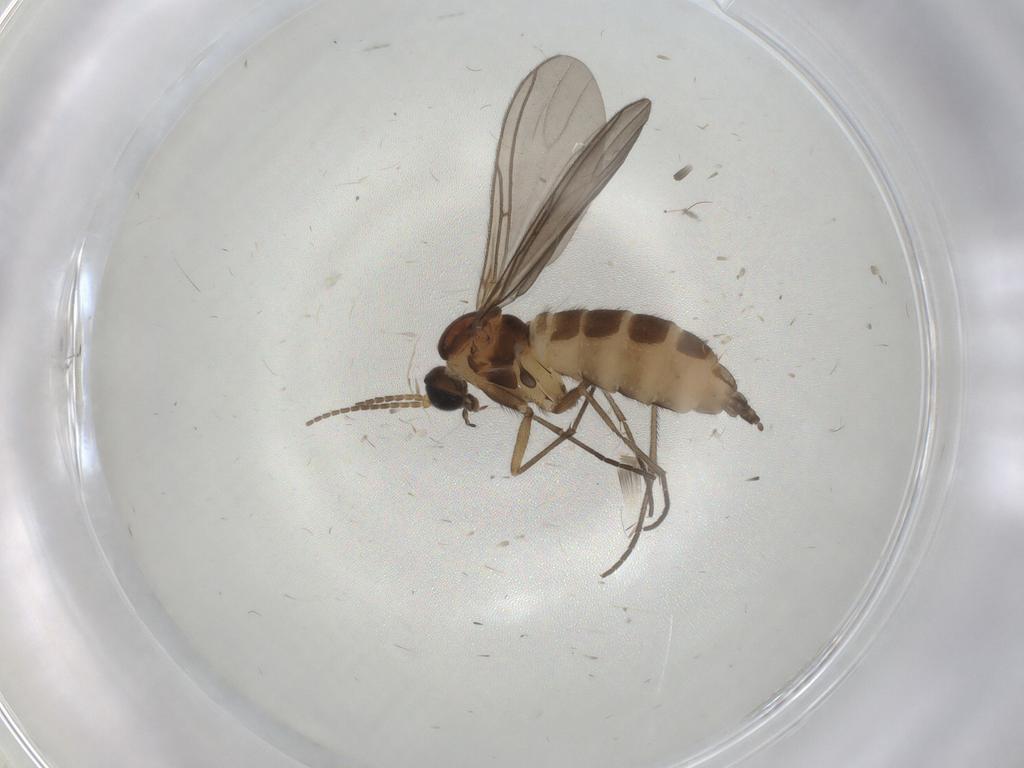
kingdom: Animalia
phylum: Arthropoda
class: Insecta
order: Diptera
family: Sciaridae
